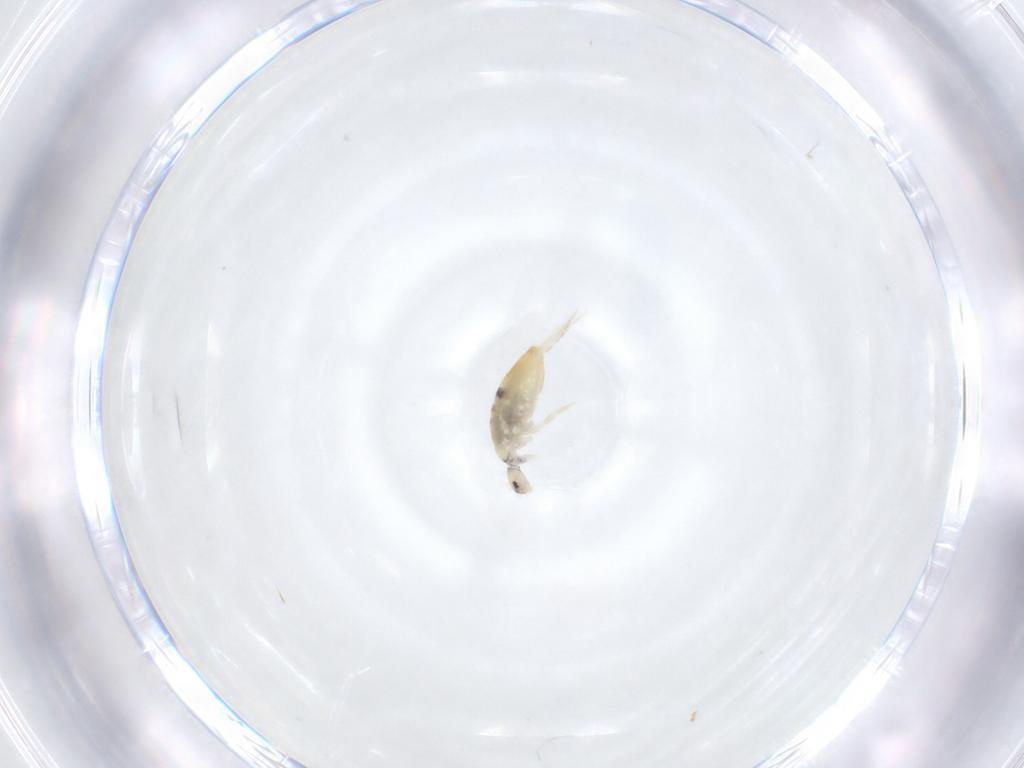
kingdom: Animalia
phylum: Arthropoda
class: Collembola
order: Entomobryomorpha
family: Entomobryidae
